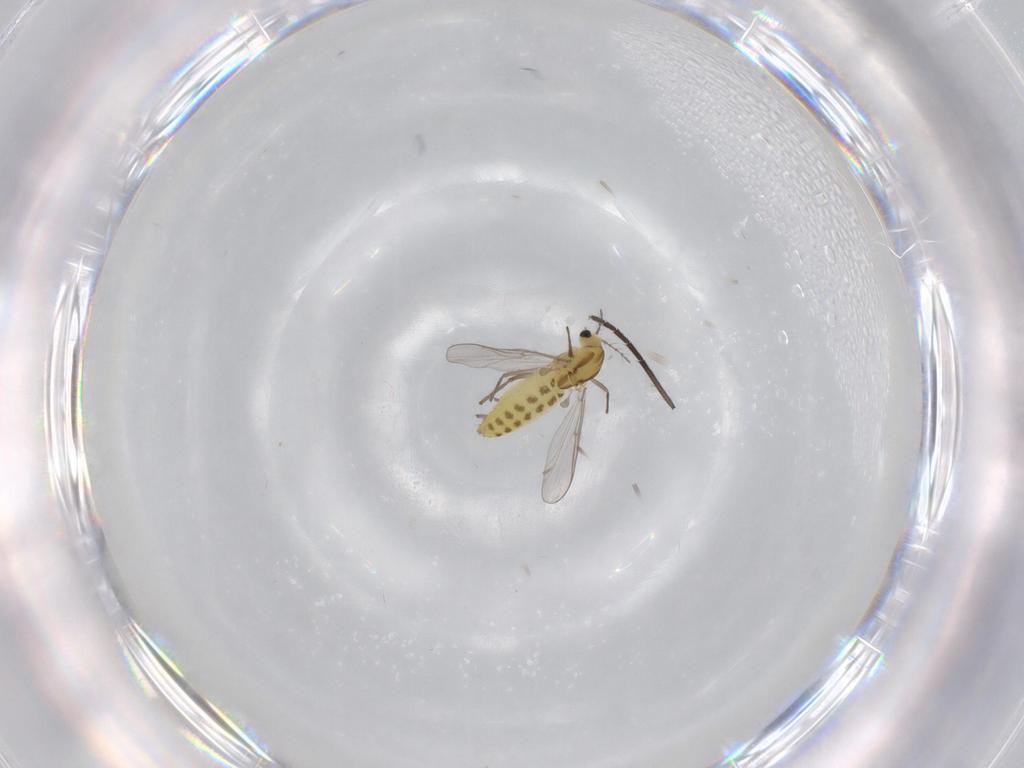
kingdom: Animalia
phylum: Arthropoda
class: Insecta
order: Diptera
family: Chironomidae
